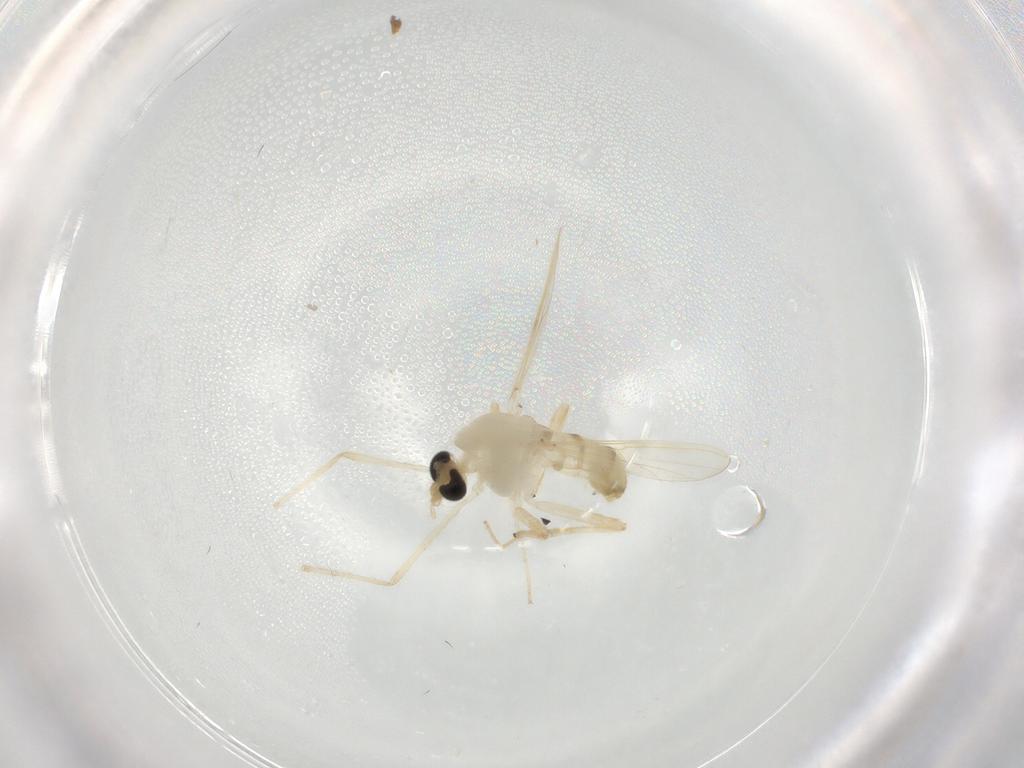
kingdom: Animalia
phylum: Arthropoda
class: Insecta
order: Diptera
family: Chironomidae
